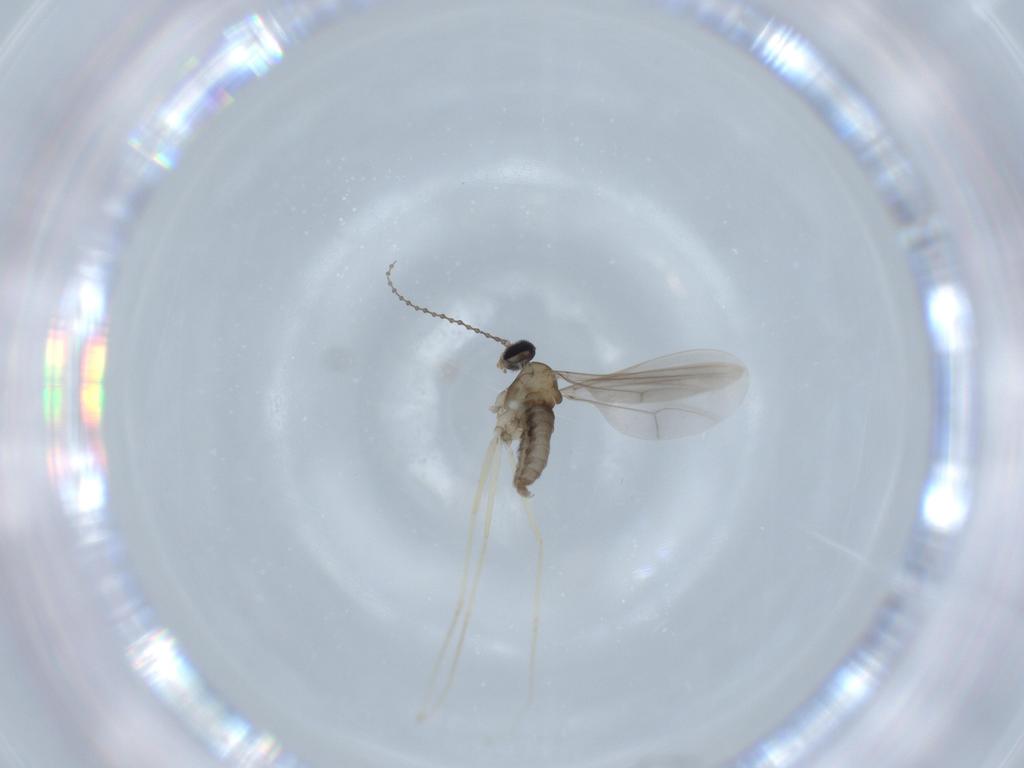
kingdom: Animalia
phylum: Arthropoda
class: Insecta
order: Diptera
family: Cecidomyiidae
